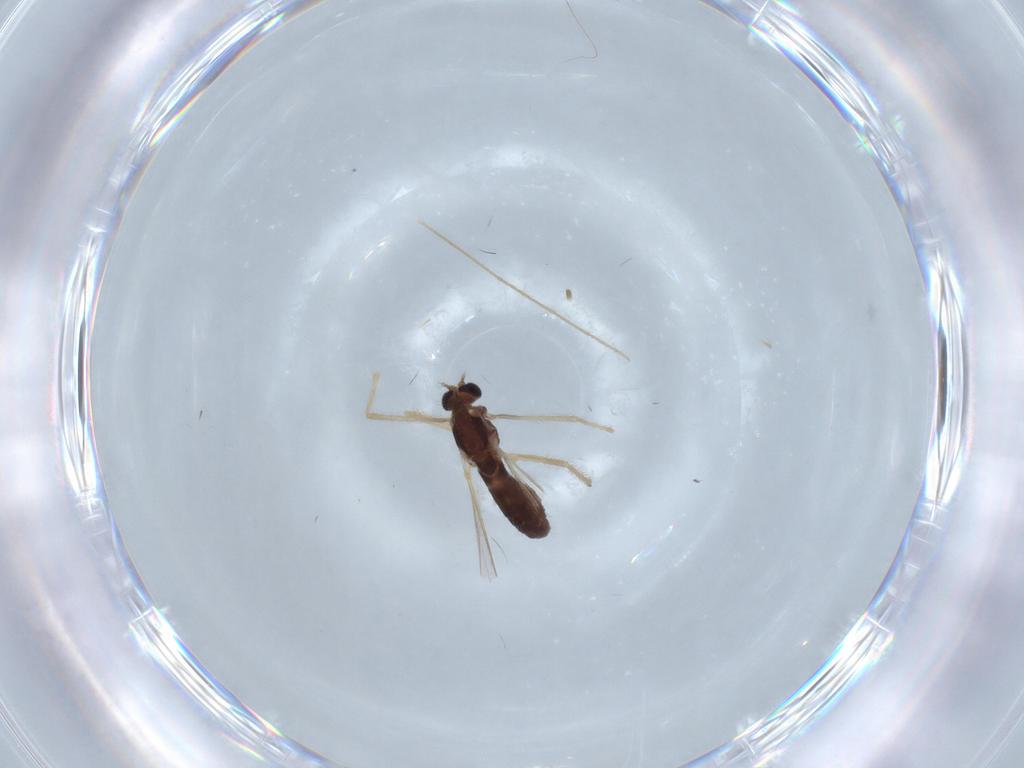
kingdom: Animalia
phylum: Arthropoda
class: Insecta
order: Diptera
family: Chironomidae
